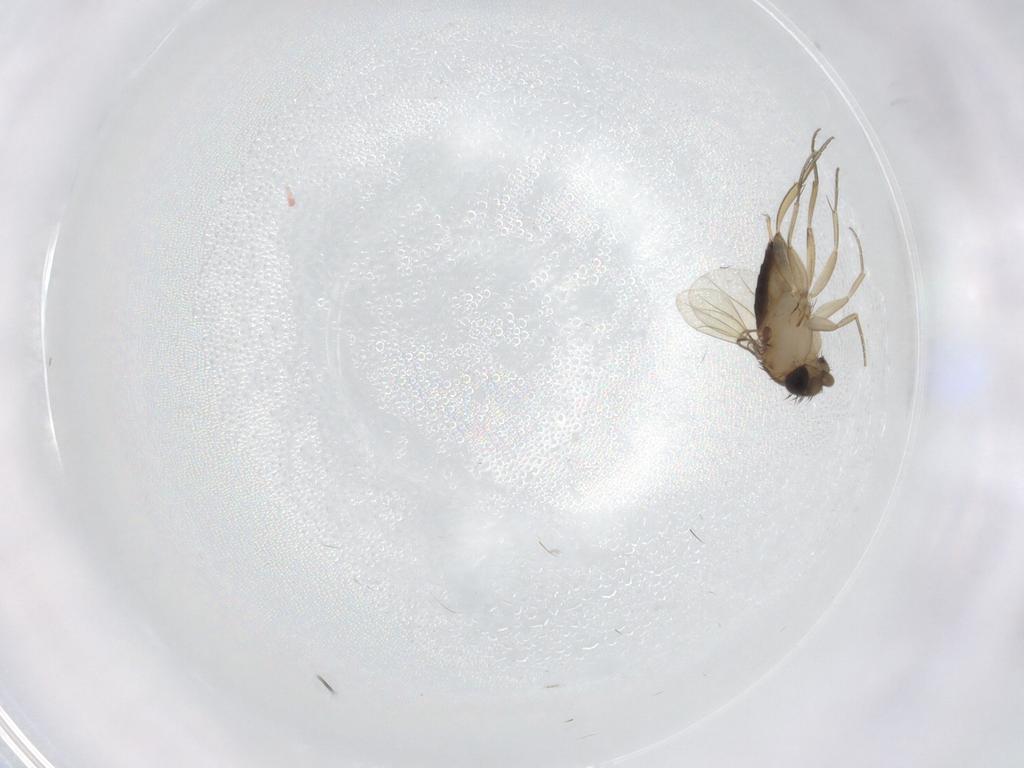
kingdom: Animalia
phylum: Arthropoda
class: Insecta
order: Diptera
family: Phoridae
